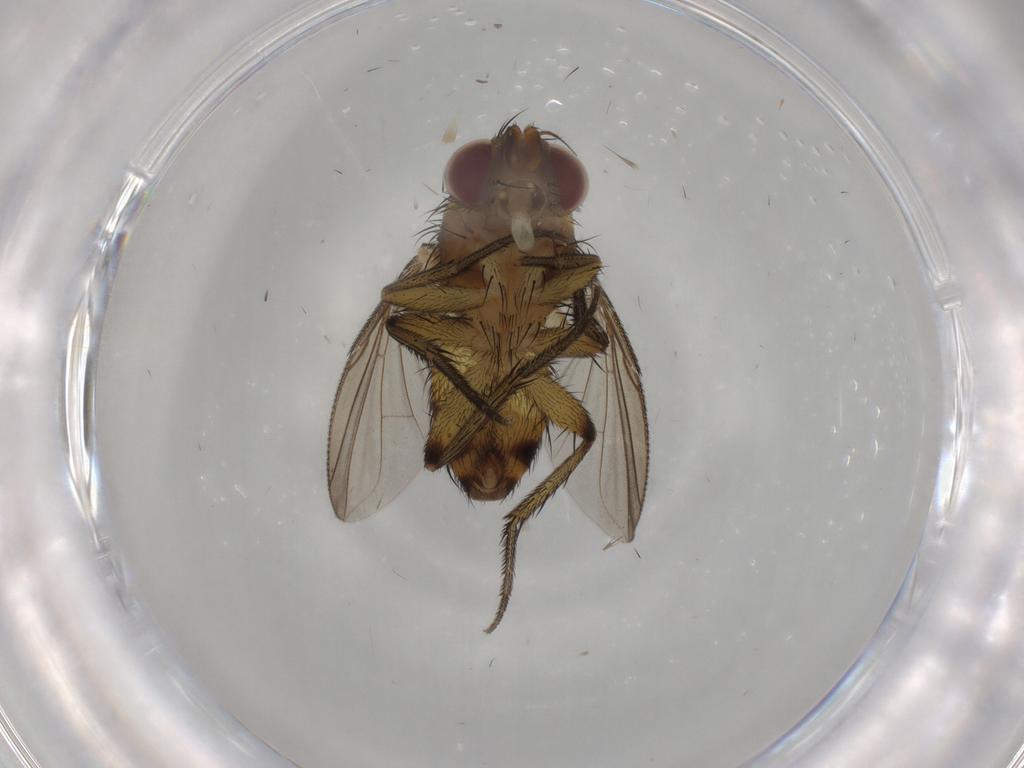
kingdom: Animalia
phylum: Arthropoda
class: Insecta
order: Diptera
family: Tachinidae
